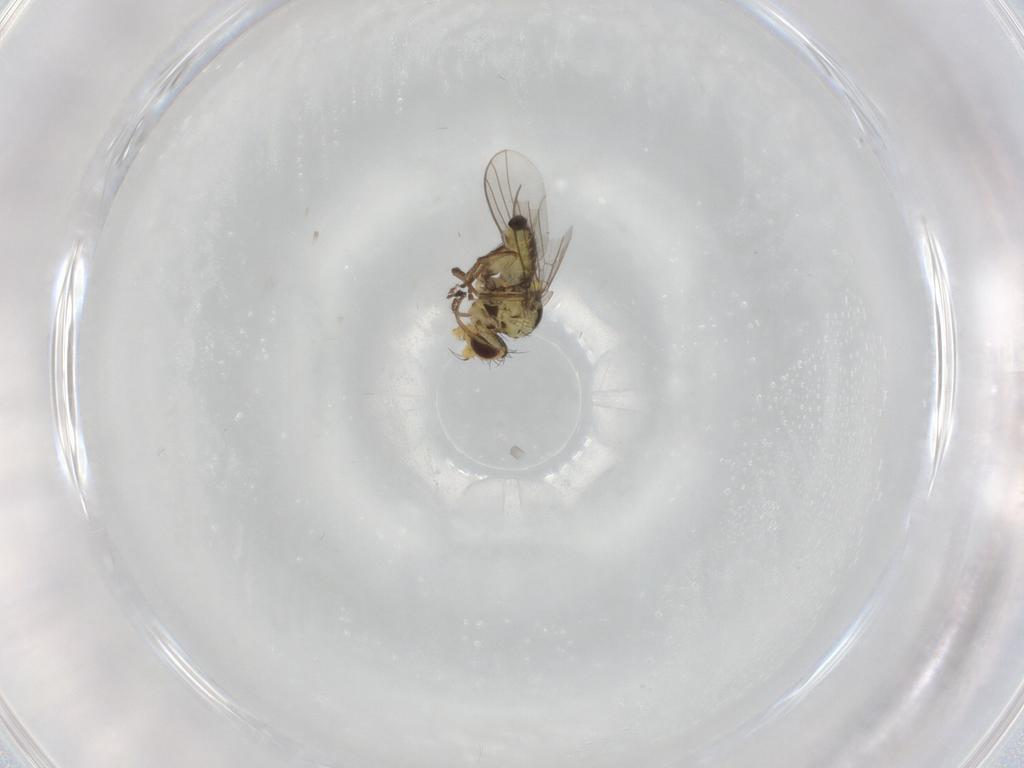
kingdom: Animalia
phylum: Arthropoda
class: Insecta
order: Diptera
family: Agromyzidae
